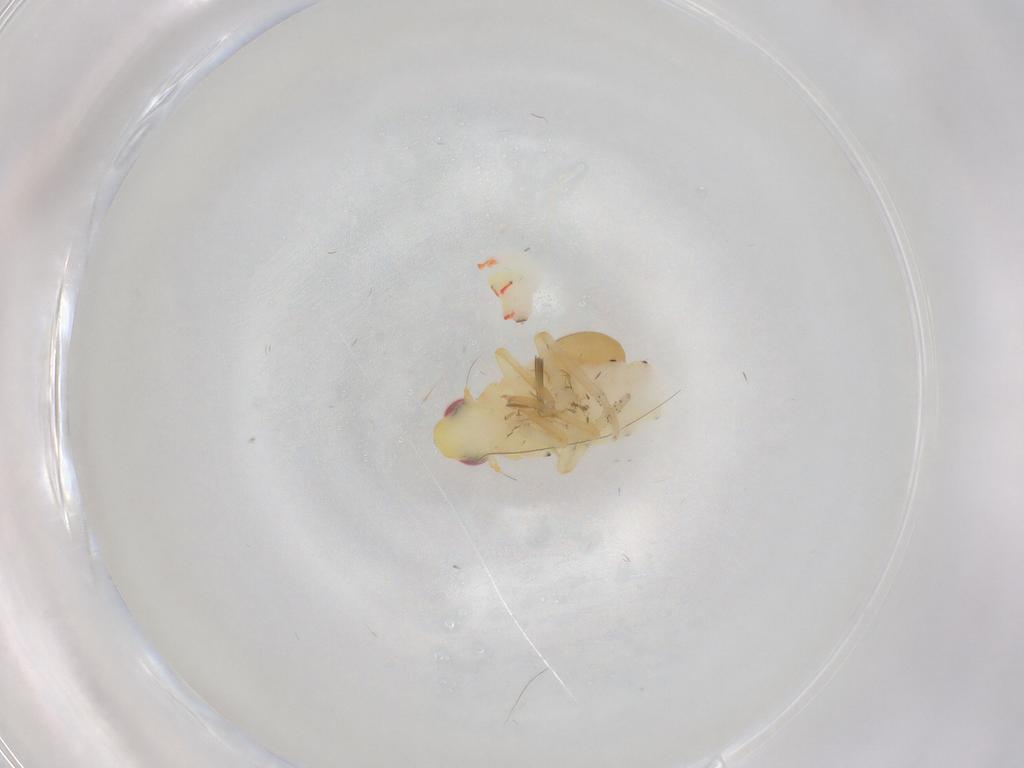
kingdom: Animalia
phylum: Arthropoda
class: Insecta
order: Hemiptera
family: Tropiduchidae
